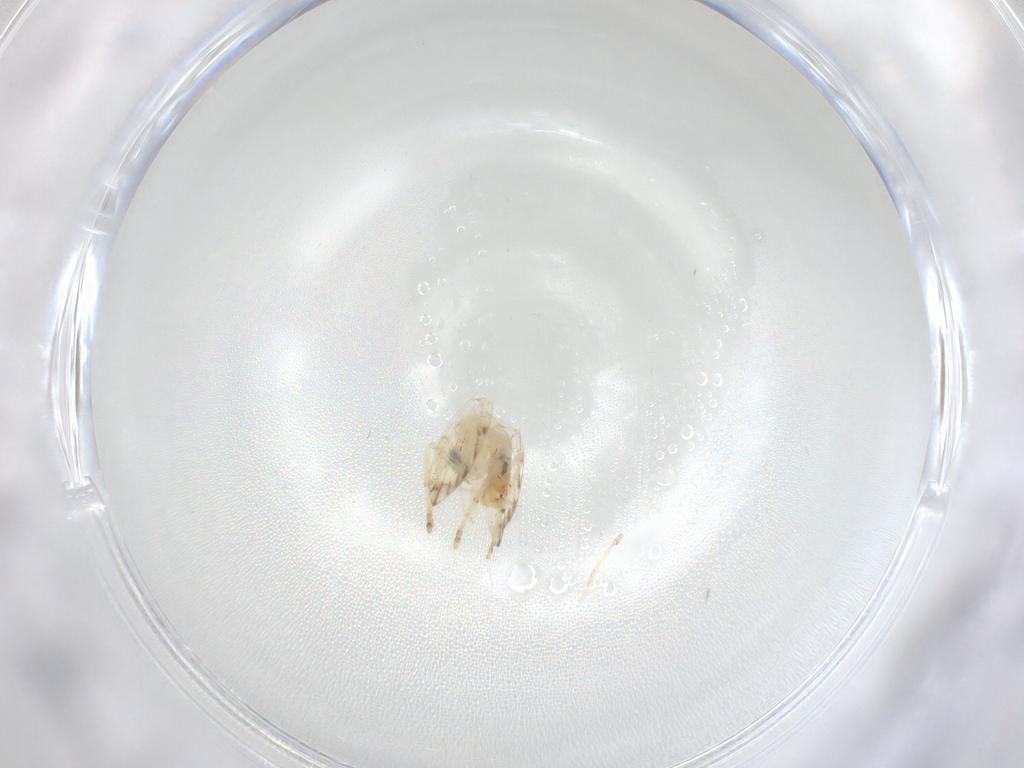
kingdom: Animalia
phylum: Arthropoda
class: Insecta
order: Diptera
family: Psychodidae
